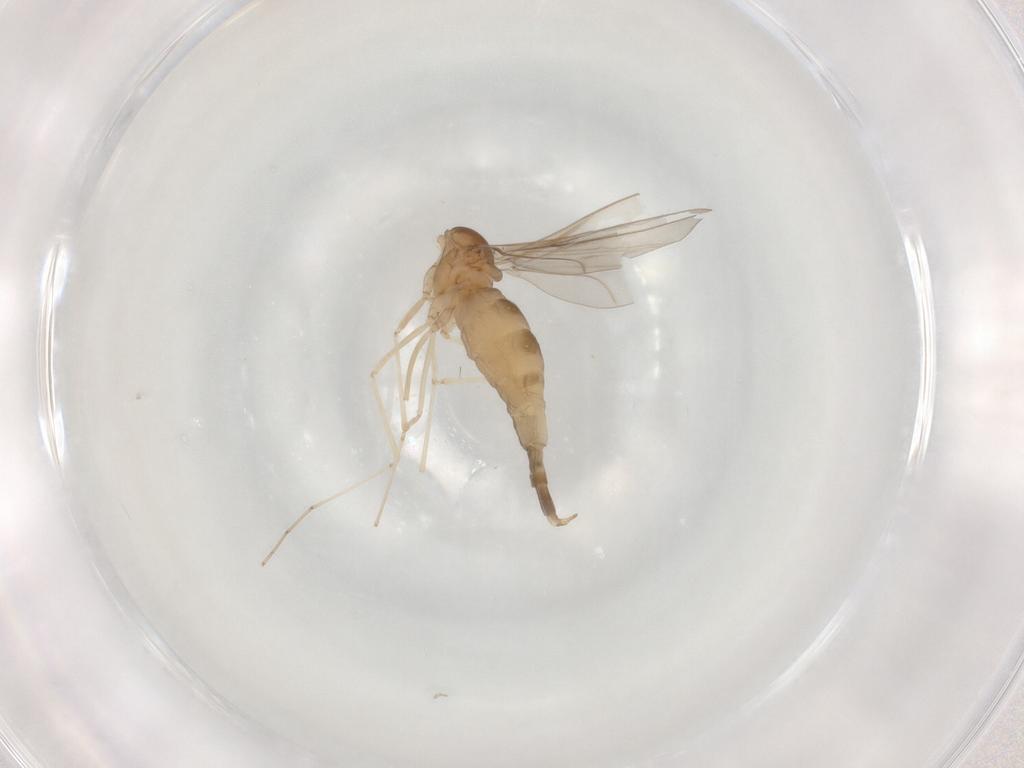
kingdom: Animalia
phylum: Arthropoda
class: Insecta
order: Diptera
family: Cecidomyiidae
